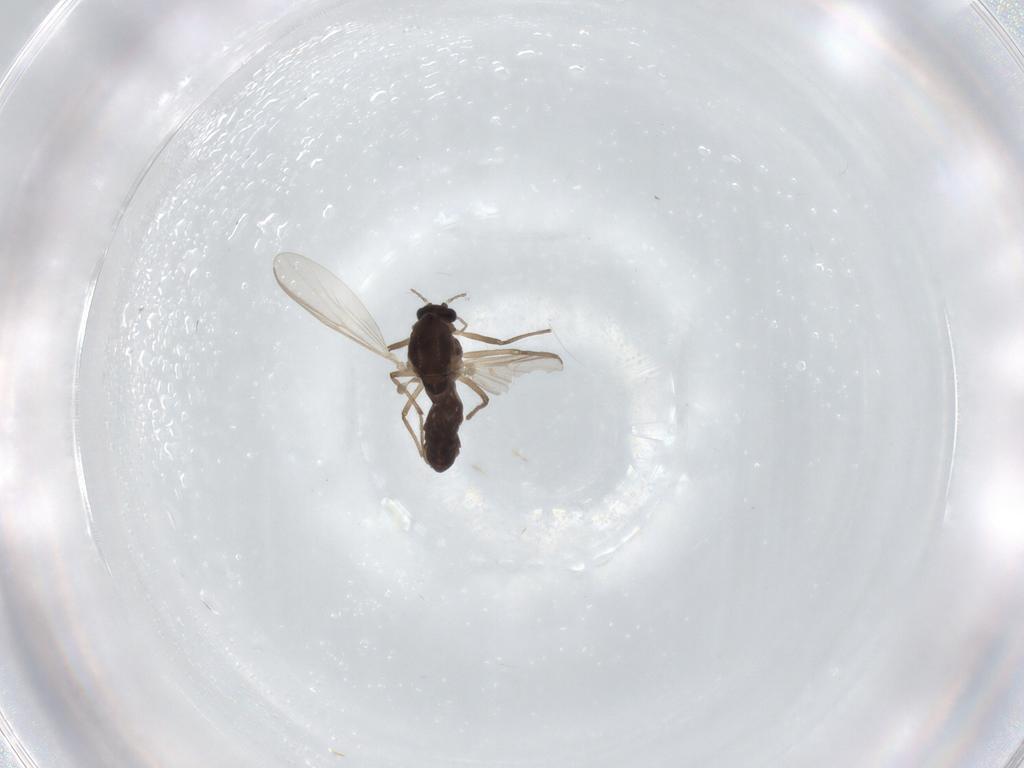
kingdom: Animalia
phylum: Arthropoda
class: Insecta
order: Diptera
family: Chironomidae
